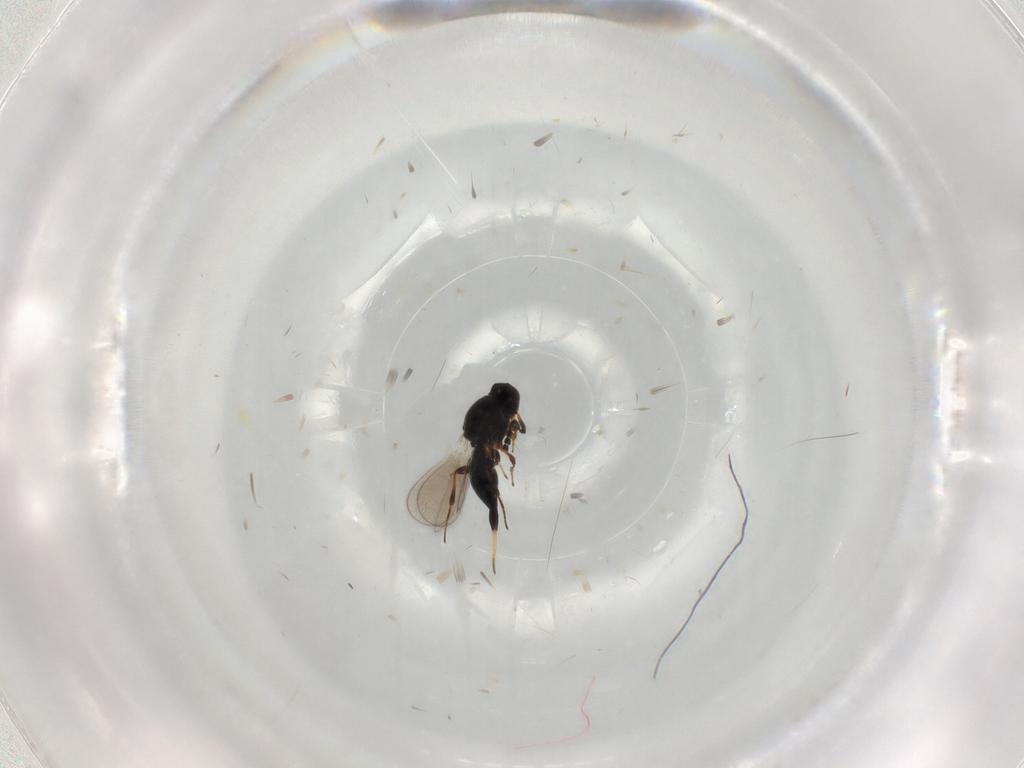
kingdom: Animalia
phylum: Arthropoda
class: Insecta
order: Hymenoptera
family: Platygastridae
